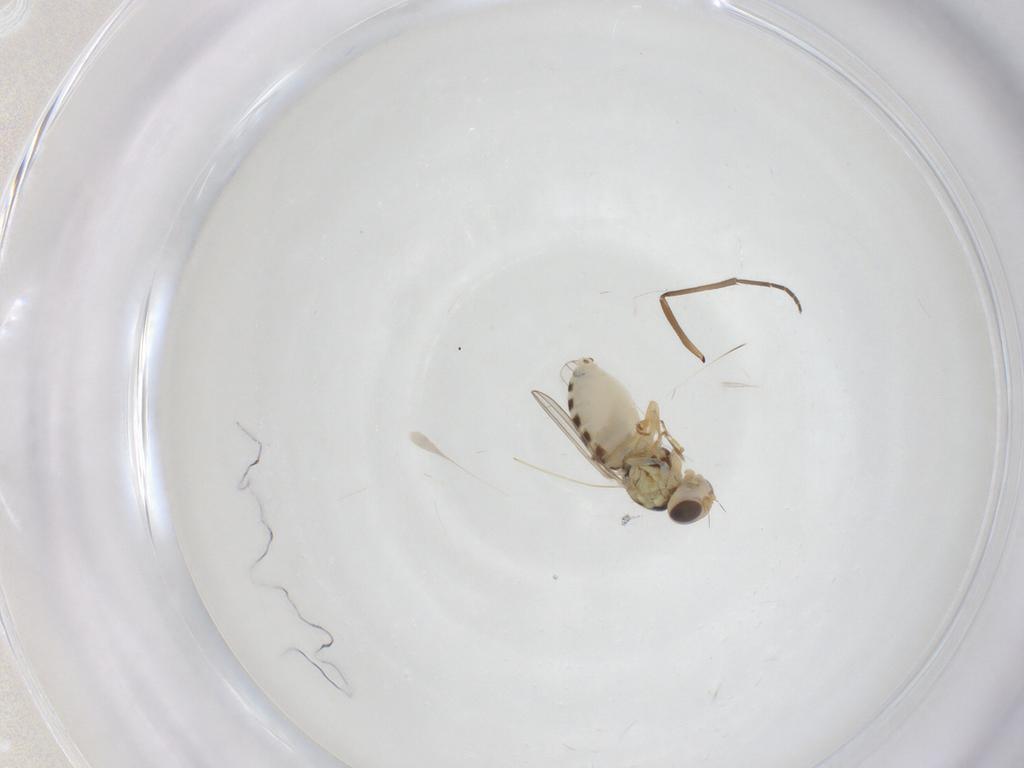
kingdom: Animalia
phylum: Arthropoda
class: Insecta
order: Diptera
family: Chyromyidae
